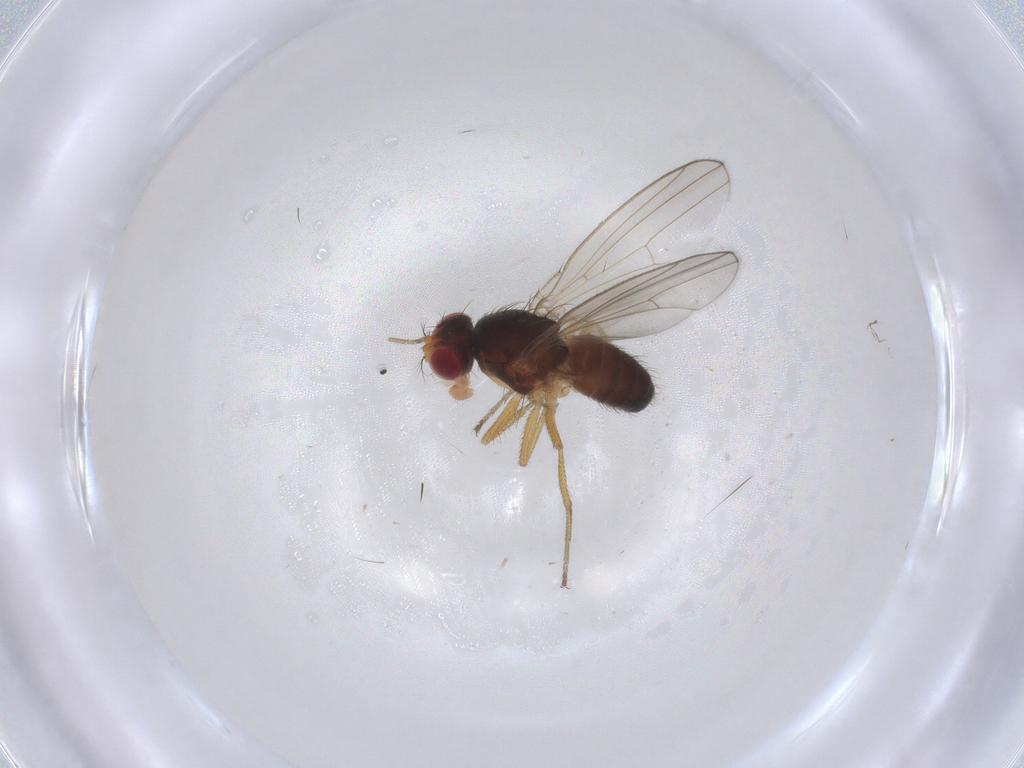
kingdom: Animalia
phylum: Arthropoda
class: Insecta
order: Diptera
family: Drosophilidae
